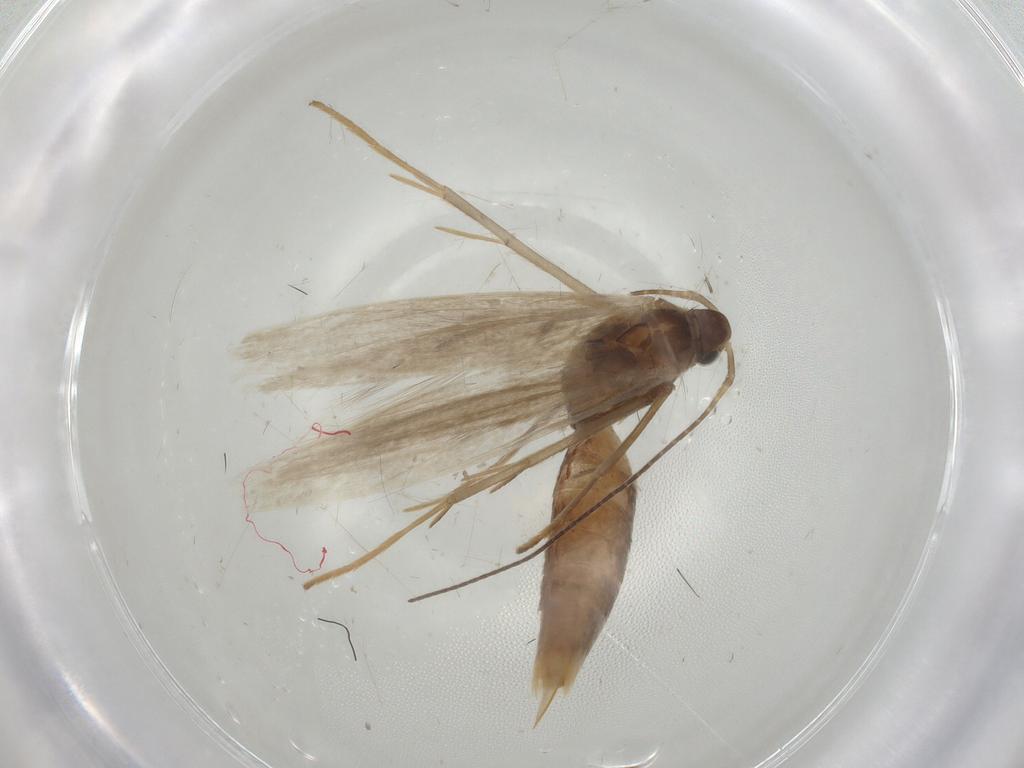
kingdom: Animalia
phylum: Arthropoda
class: Insecta
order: Lepidoptera
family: Coleophoridae
